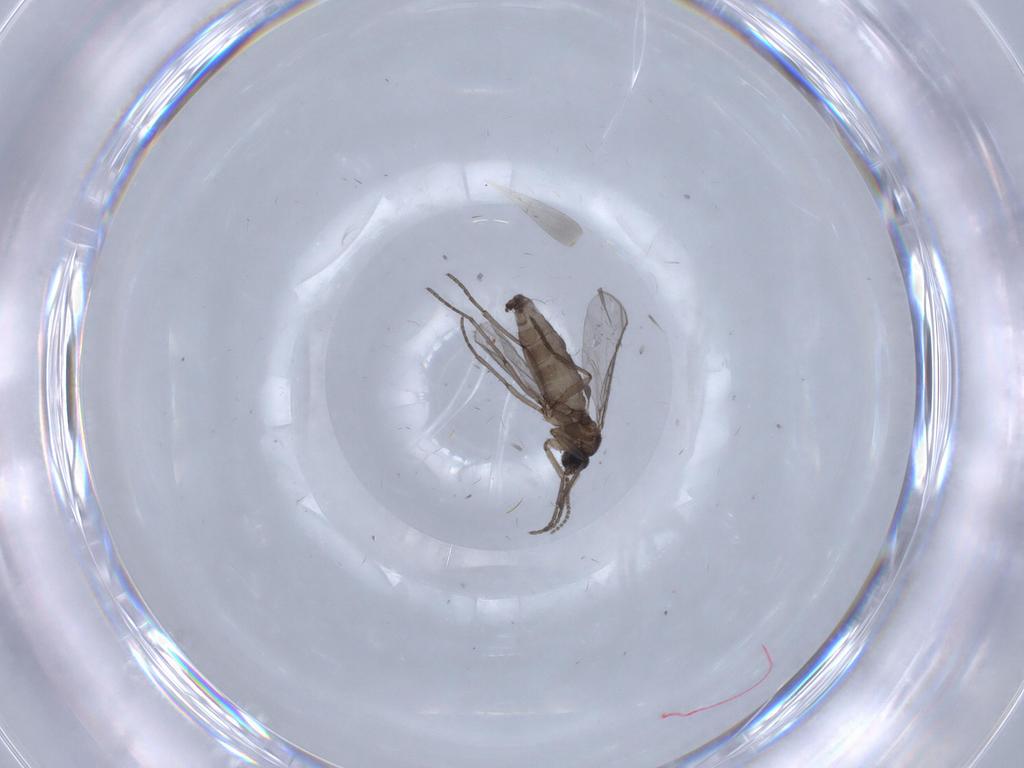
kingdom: Animalia
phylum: Arthropoda
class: Insecta
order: Diptera
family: Chironomidae
